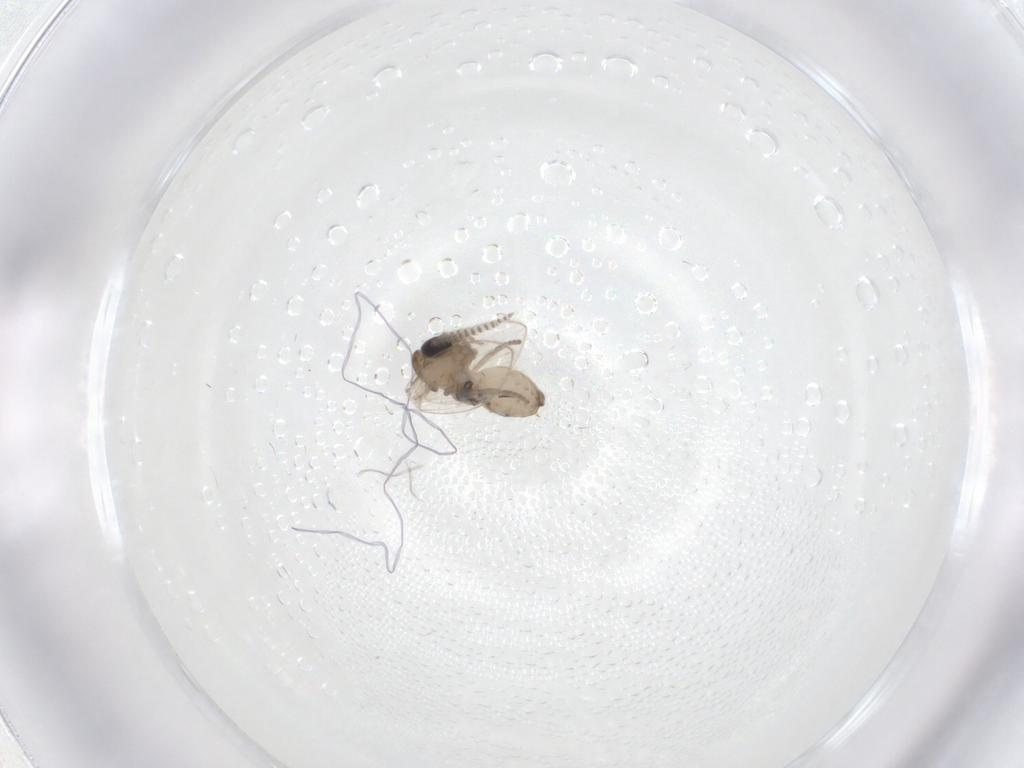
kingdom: Animalia
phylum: Arthropoda
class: Insecta
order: Diptera
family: Psychodidae
